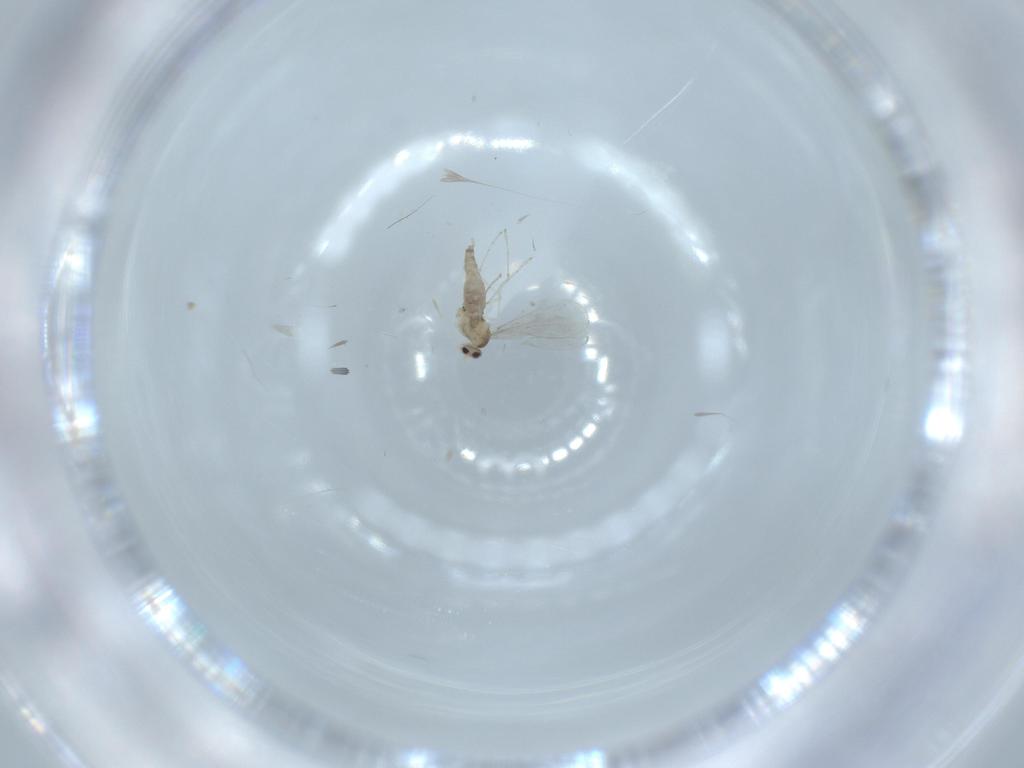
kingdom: Animalia
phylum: Arthropoda
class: Insecta
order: Diptera
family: Cecidomyiidae
